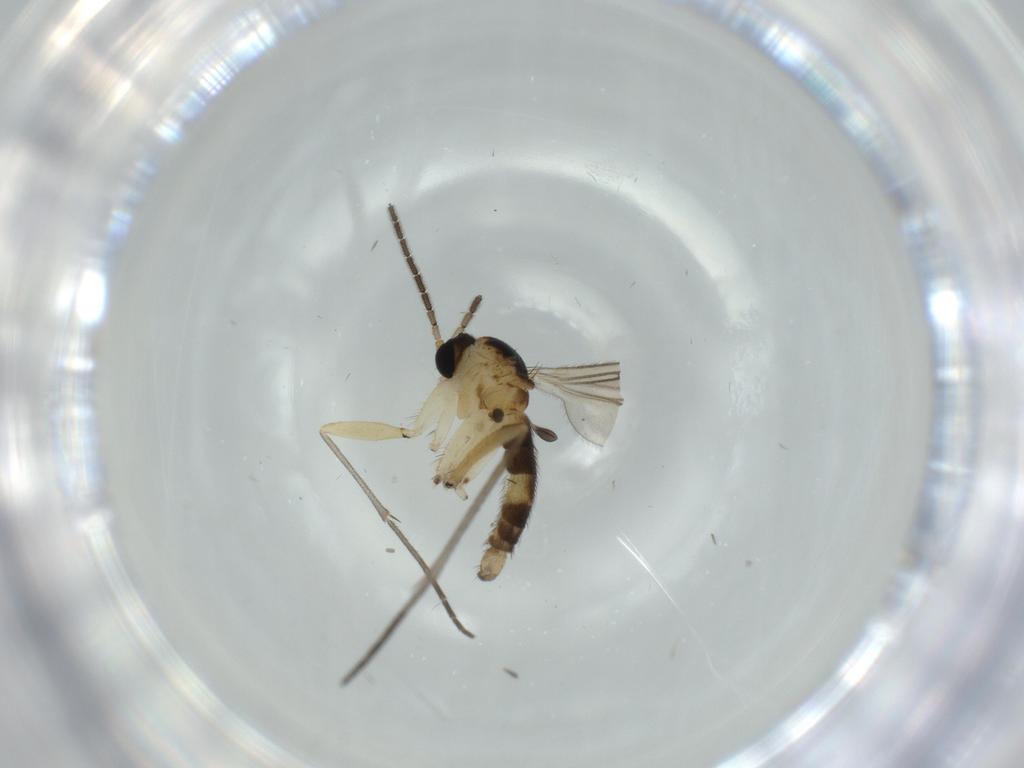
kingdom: Animalia
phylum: Arthropoda
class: Insecta
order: Diptera
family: Sciaridae
